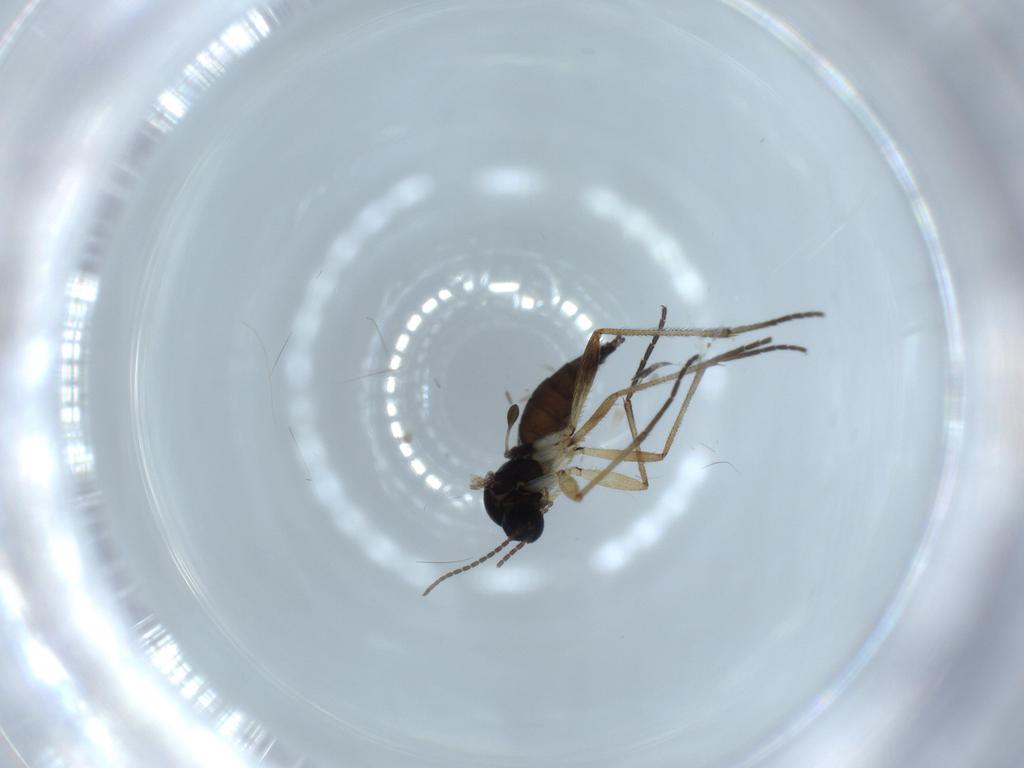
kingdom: Animalia
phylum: Arthropoda
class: Insecta
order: Diptera
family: Sciaridae
